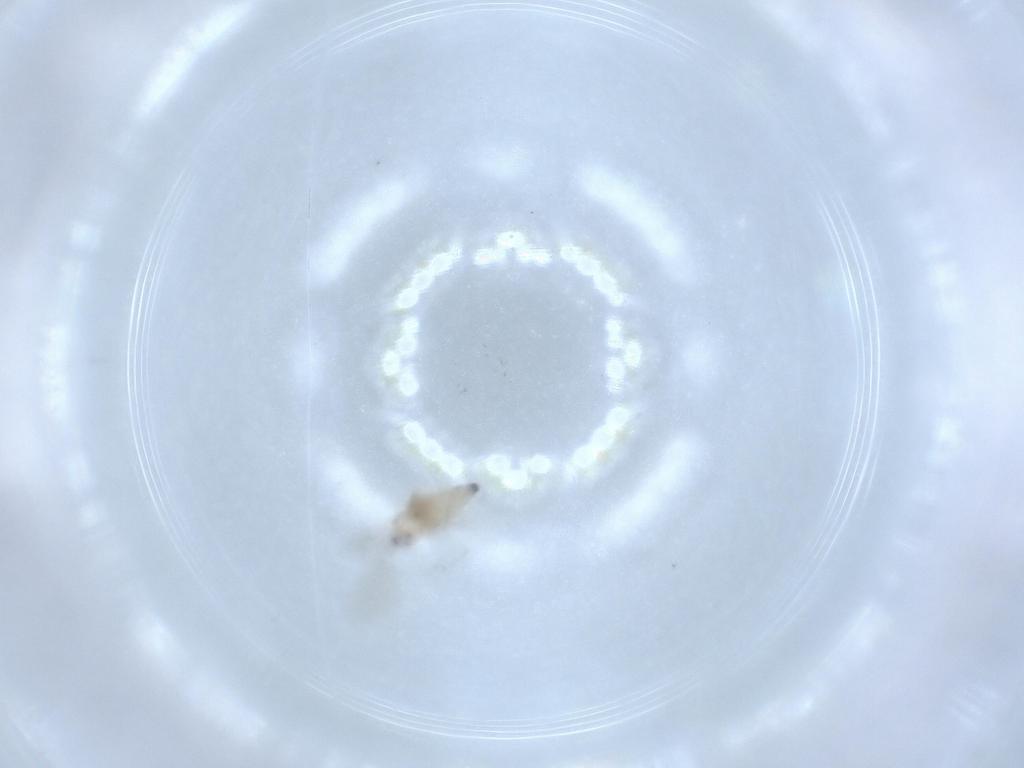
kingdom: Animalia
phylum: Arthropoda
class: Insecta
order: Diptera
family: Cecidomyiidae
